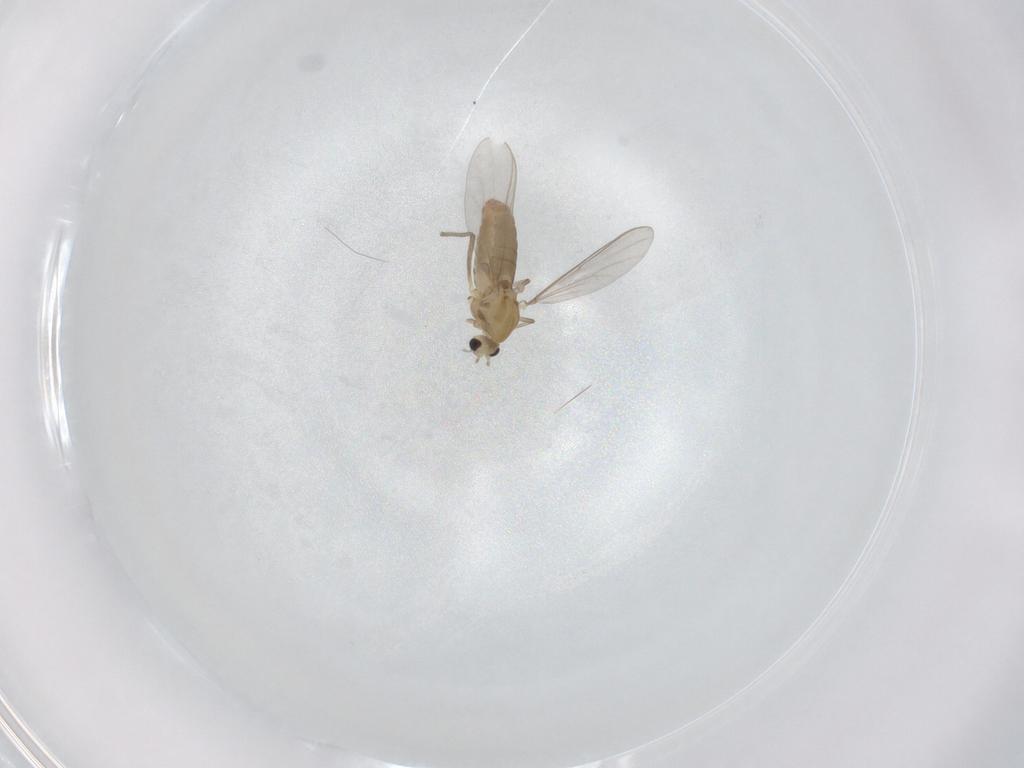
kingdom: Animalia
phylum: Arthropoda
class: Insecta
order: Diptera
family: Chironomidae
